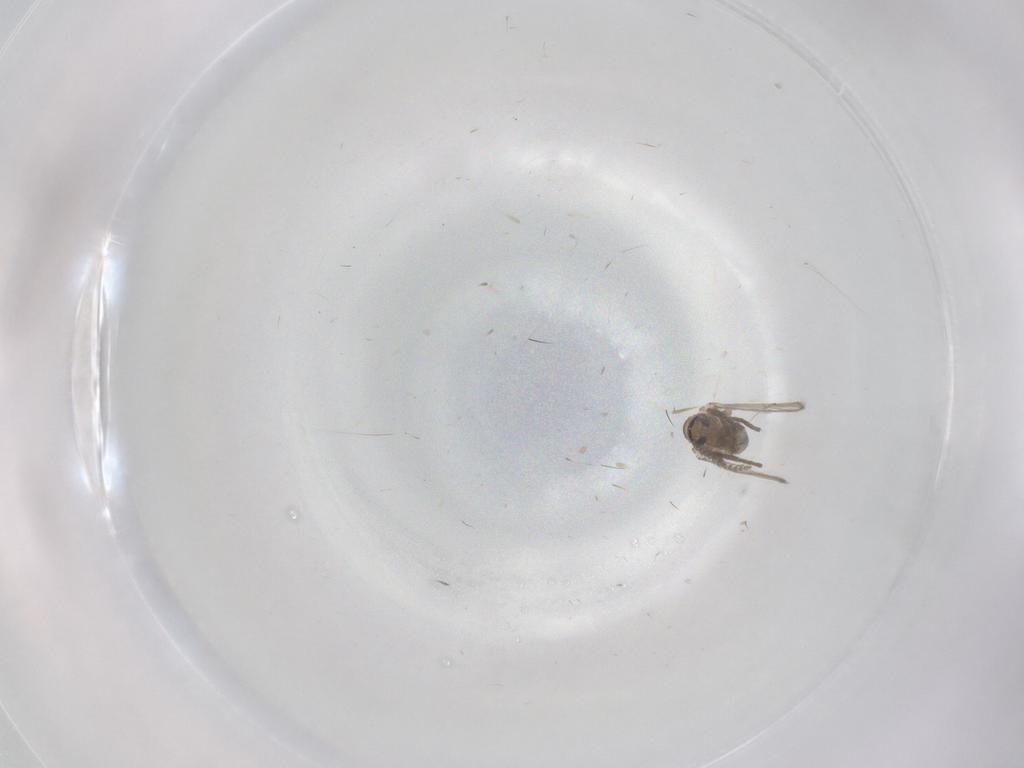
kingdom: Animalia
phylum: Arthropoda
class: Insecta
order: Diptera
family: Psychodidae
